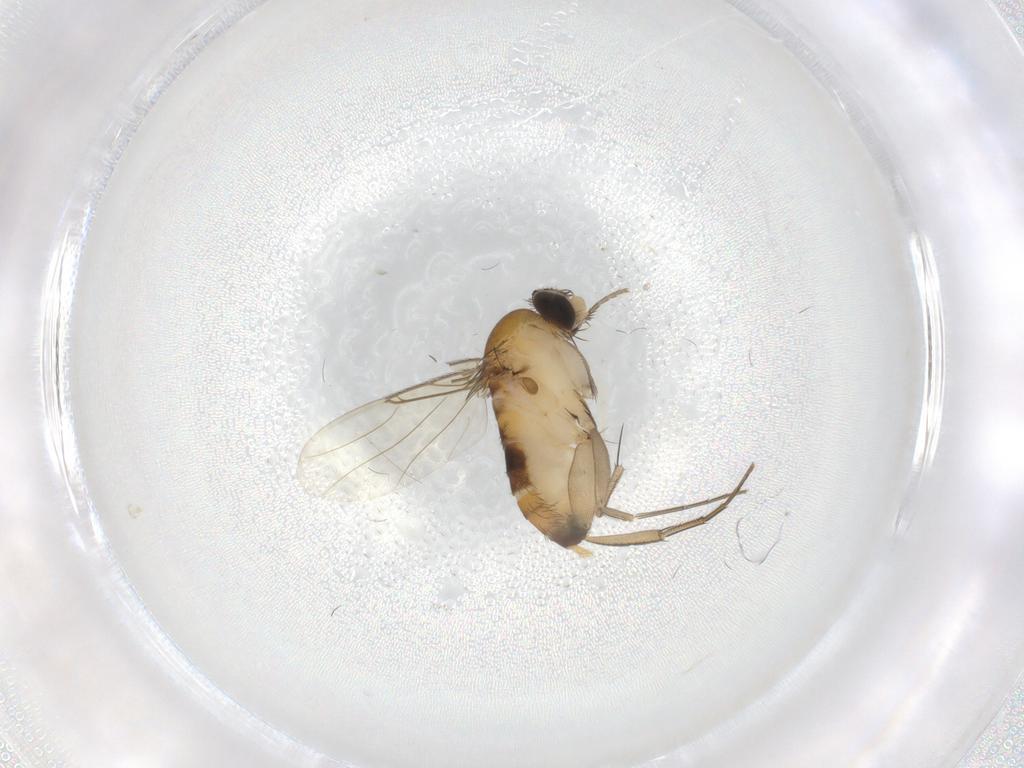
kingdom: Animalia
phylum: Arthropoda
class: Insecta
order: Diptera
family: Phoridae
